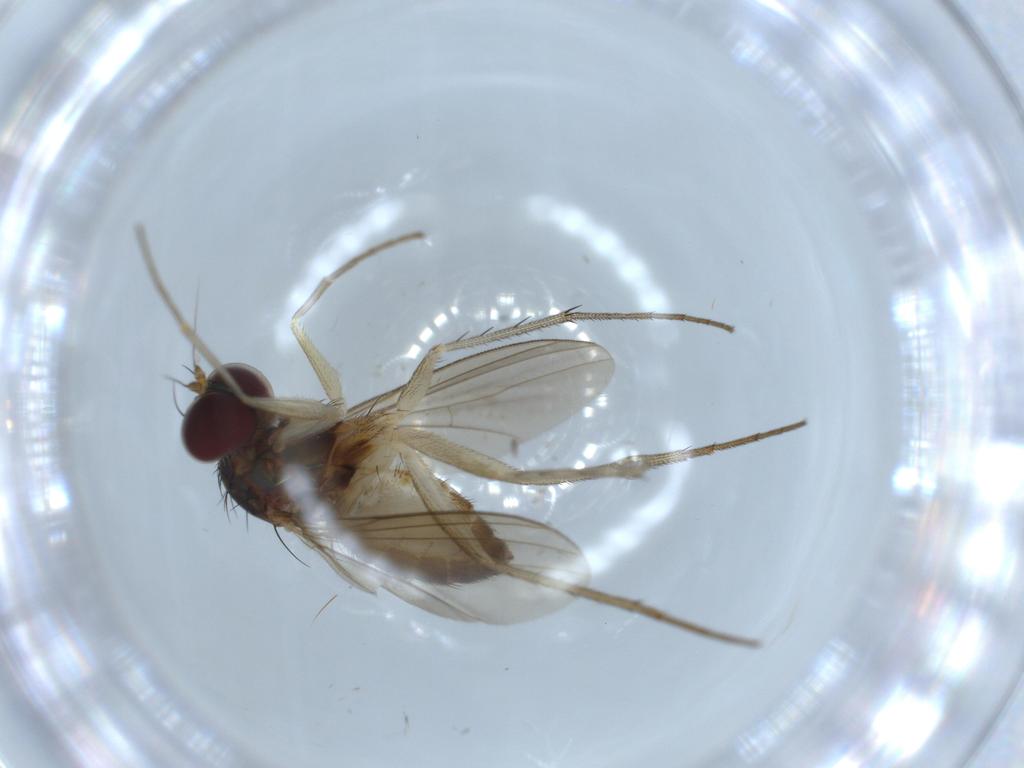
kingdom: Animalia
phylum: Arthropoda
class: Insecta
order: Diptera
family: Dolichopodidae
